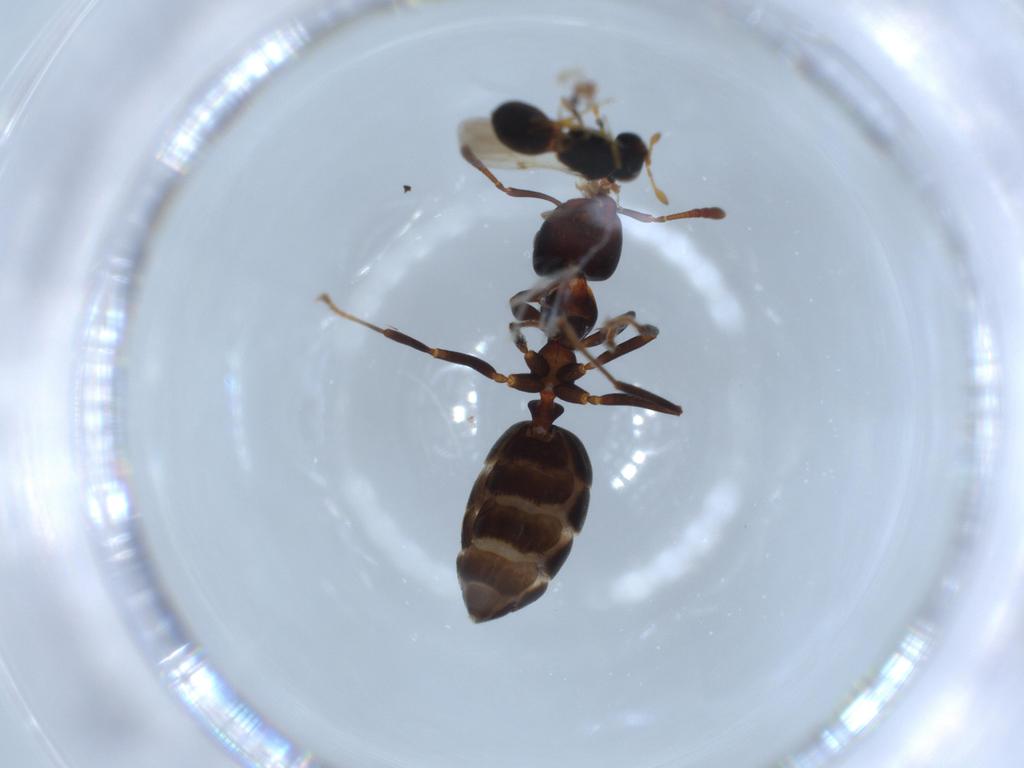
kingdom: Animalia
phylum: Arthropoda
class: Insecta
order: Hymenoptera
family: Scelionidae
